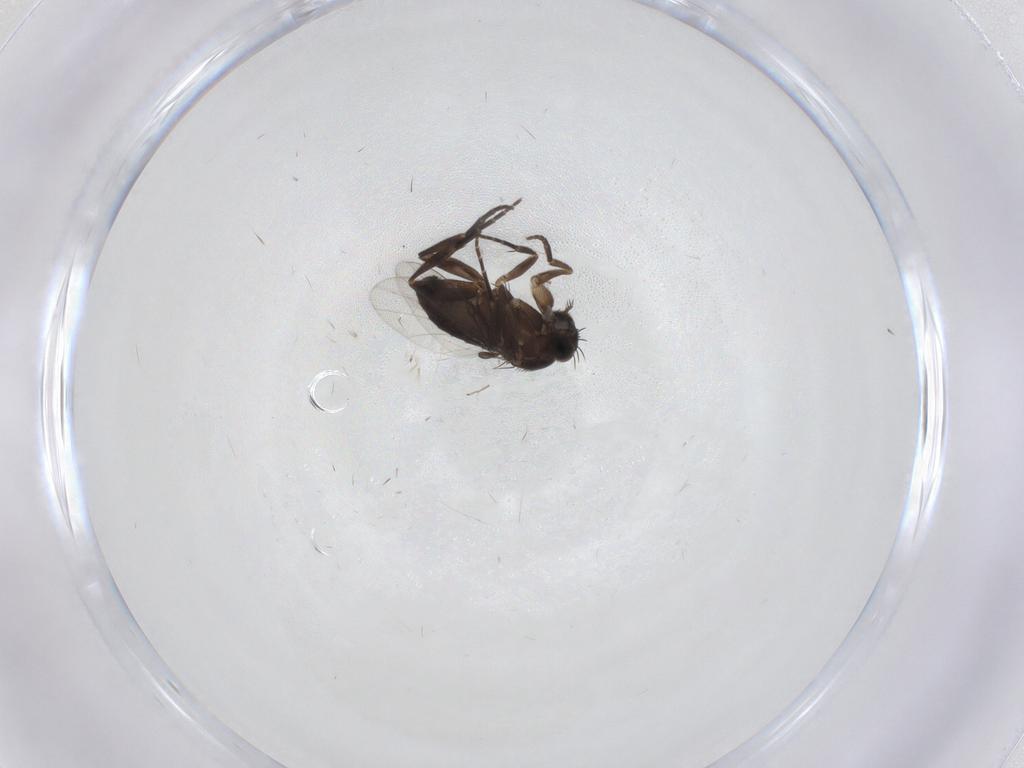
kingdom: Animalia
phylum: Arthropoda
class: Insecta
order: Diptera
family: Phoridae
